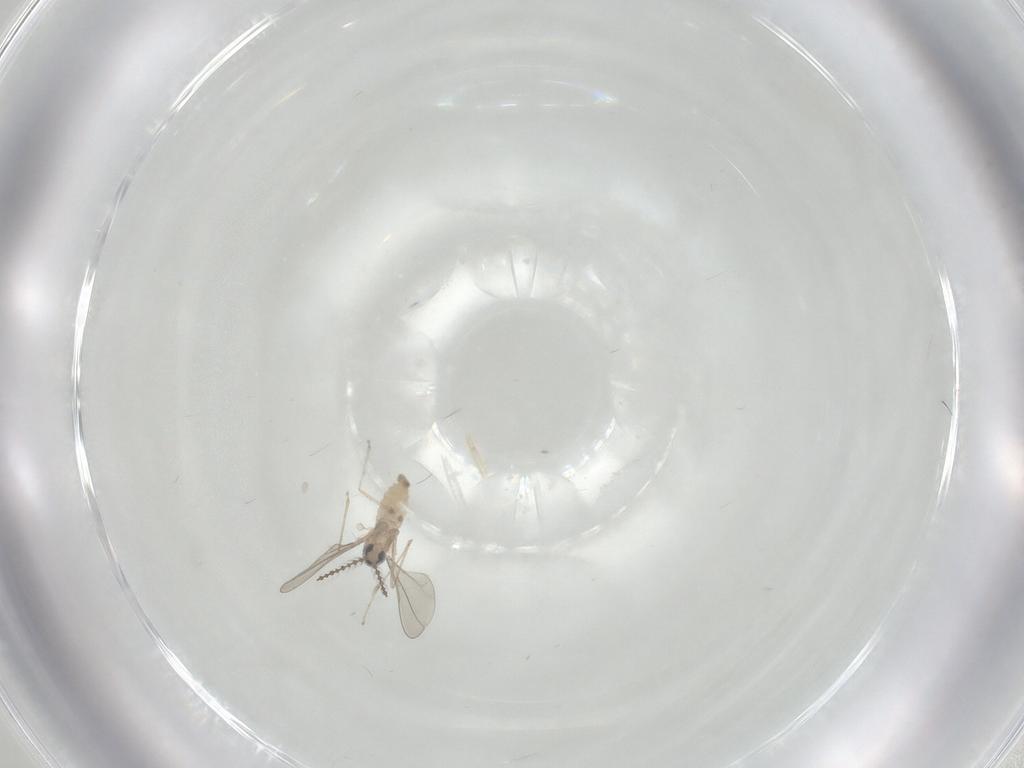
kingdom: Animalia
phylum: Arthropoda
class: Insecta
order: Diptera
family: Cecidomyiidae
